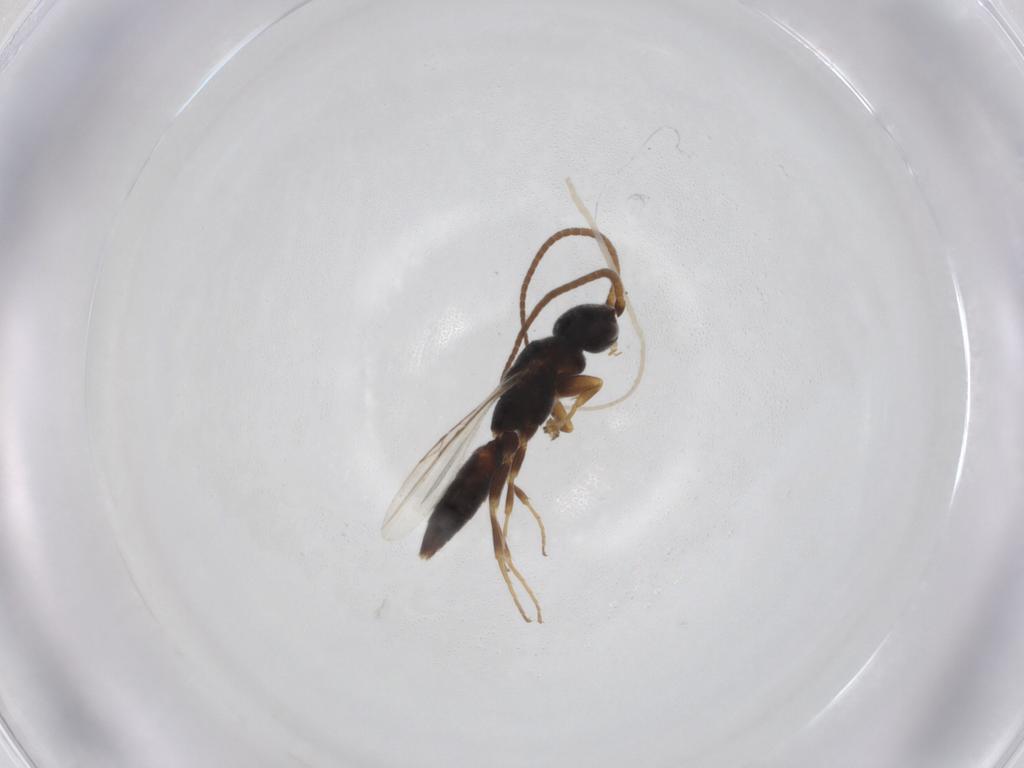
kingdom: Animalia
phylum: Arthropoda
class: Insecta
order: Hymenoptera
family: Sclerogibbidae
